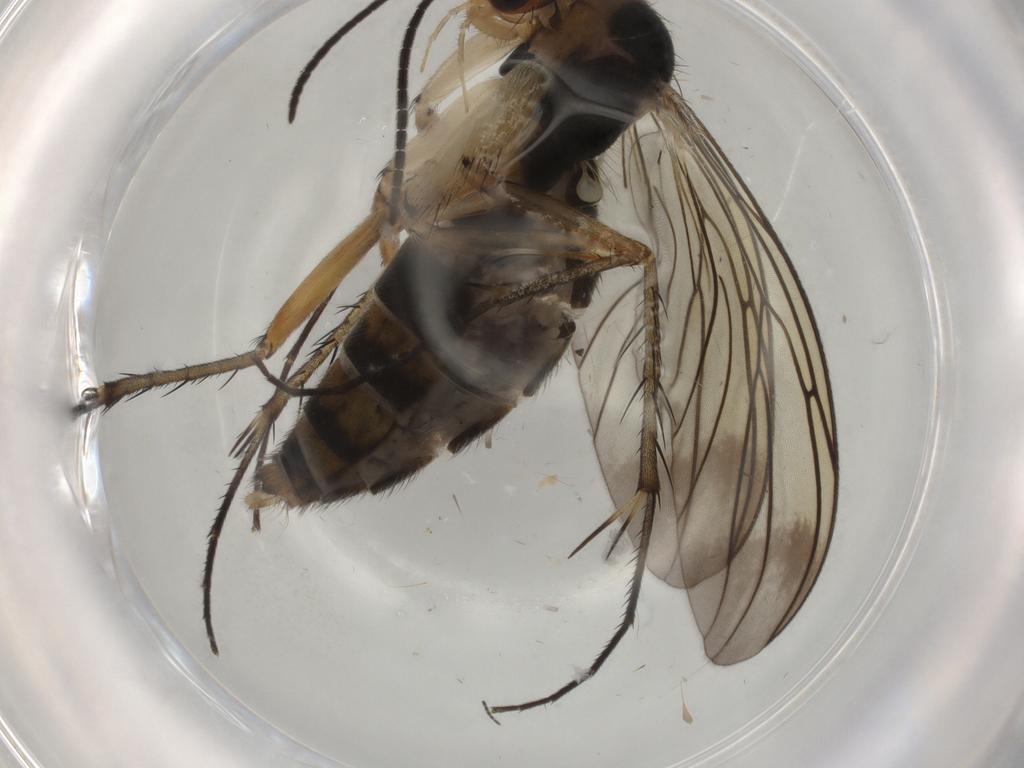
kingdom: Animalia
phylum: Arthropoda
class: Insecta
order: Diptera
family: Mycetophilidae
